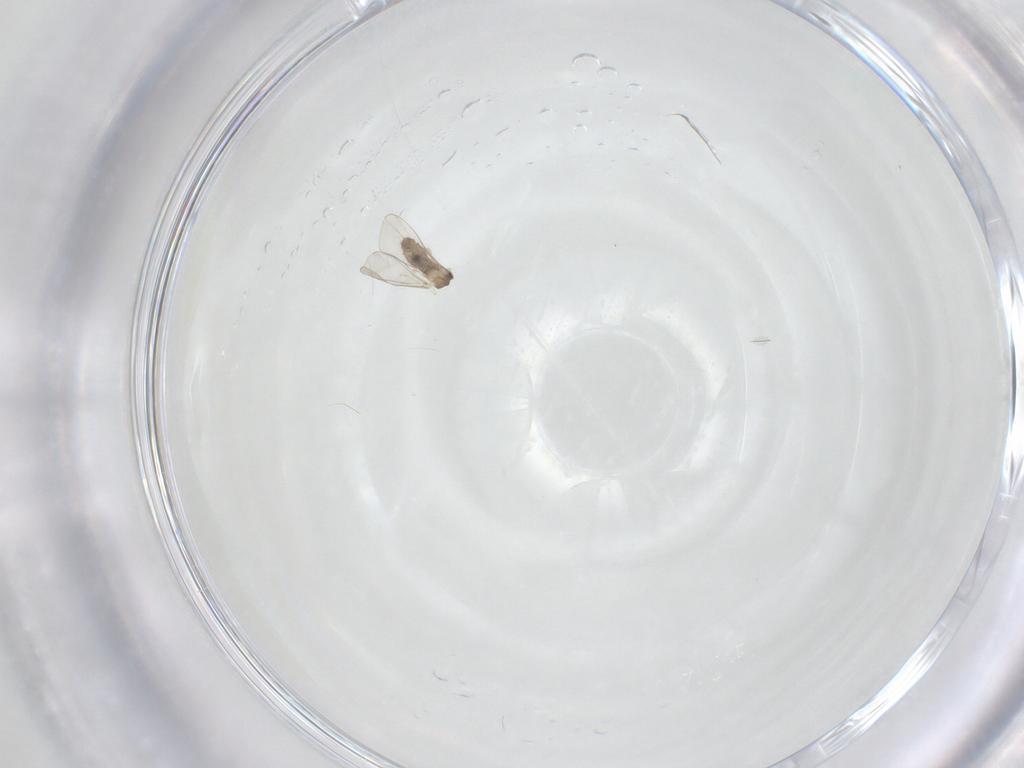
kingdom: Animalia
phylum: Arthropoda
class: Insecta
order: Diptera
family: Cecidomyiidae
